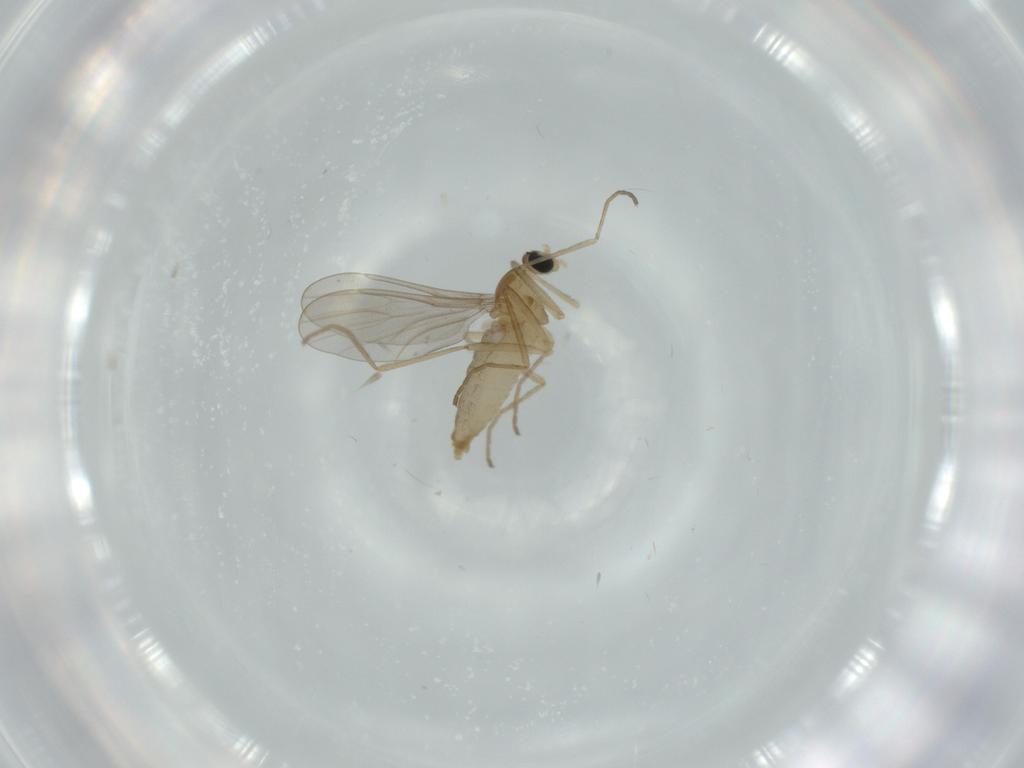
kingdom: Animalia
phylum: Arthropoda
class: Insecta
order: Diptera
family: Cecidomyiidae
